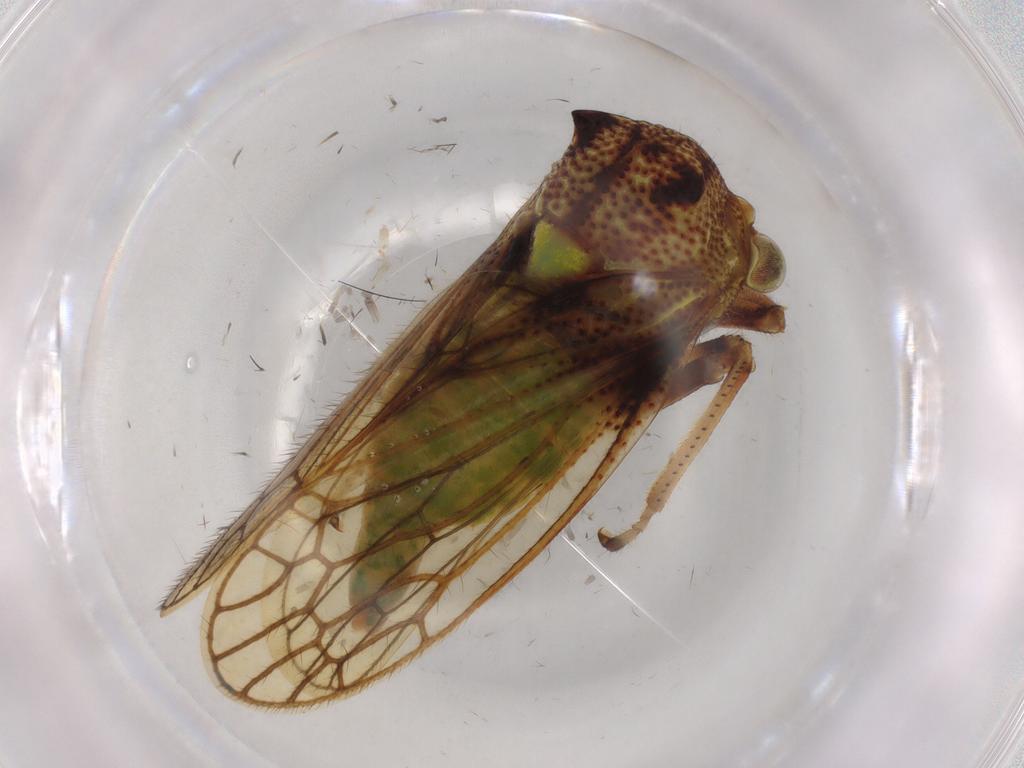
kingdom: Animalia
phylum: Arthropoda
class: Insecta
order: Hemiptera
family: Membracidae
